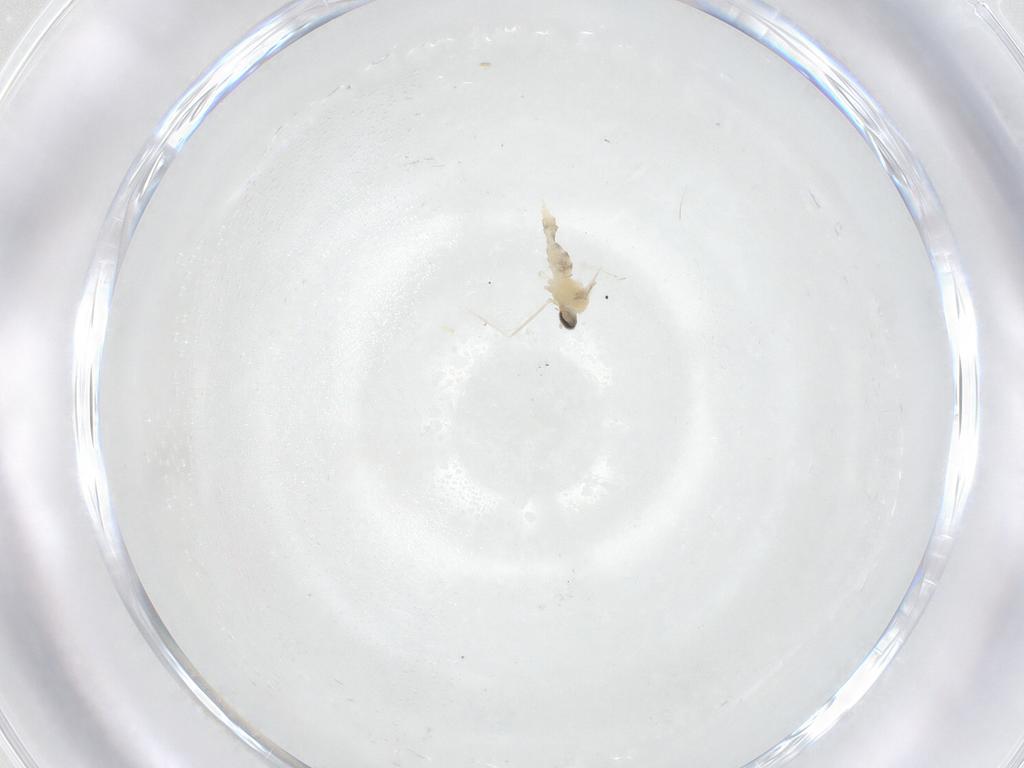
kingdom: Animalia
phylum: Arthropoda
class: Insecta
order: Diptera
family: Cecidomyiidae
